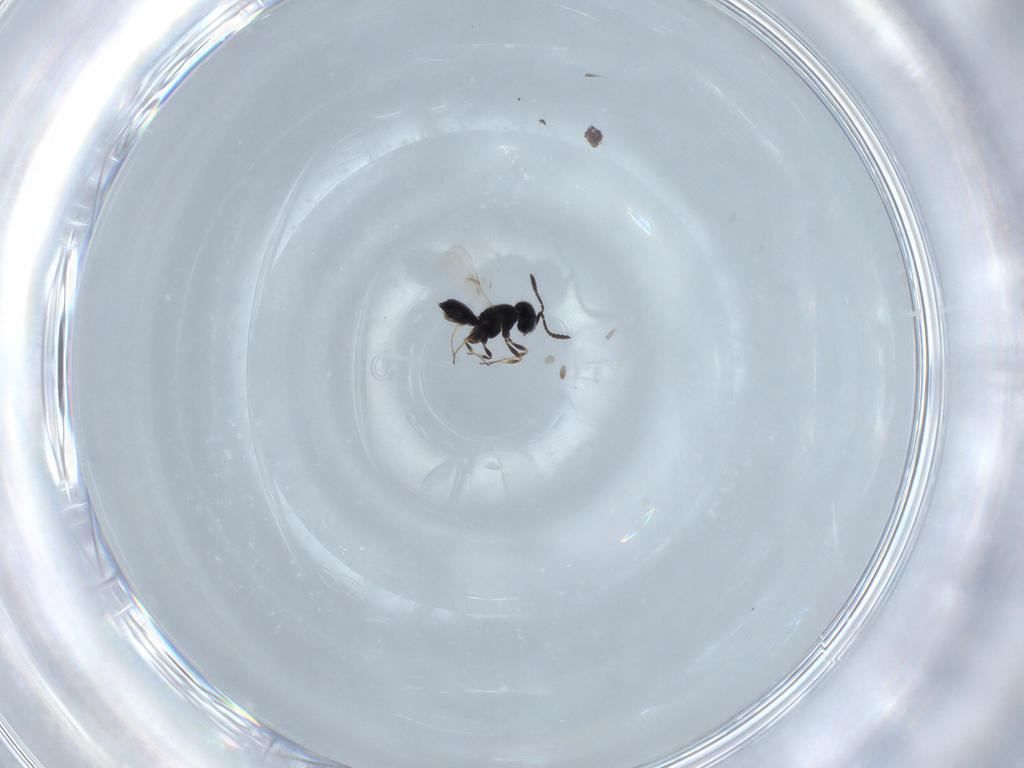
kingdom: Animalia
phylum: Arthropoda
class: Insecta
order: Hymenoptera
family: Scelionidae
